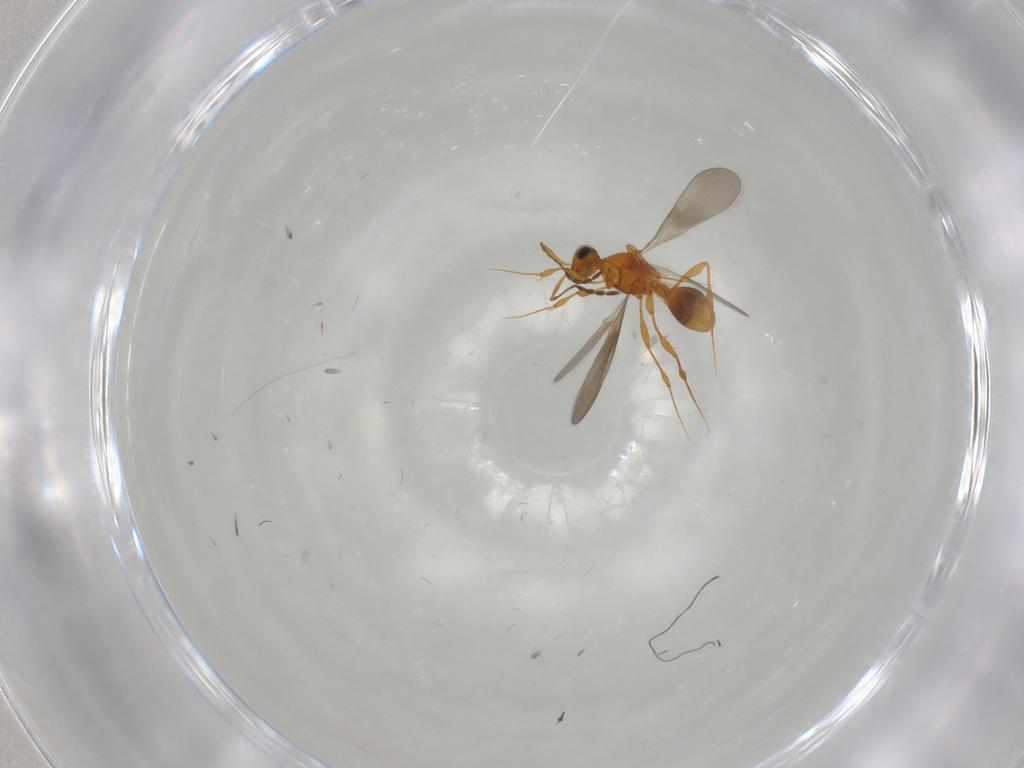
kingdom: Animalia
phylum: Arthropoda
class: Insecta
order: Hymenoptera
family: Platygastridae
